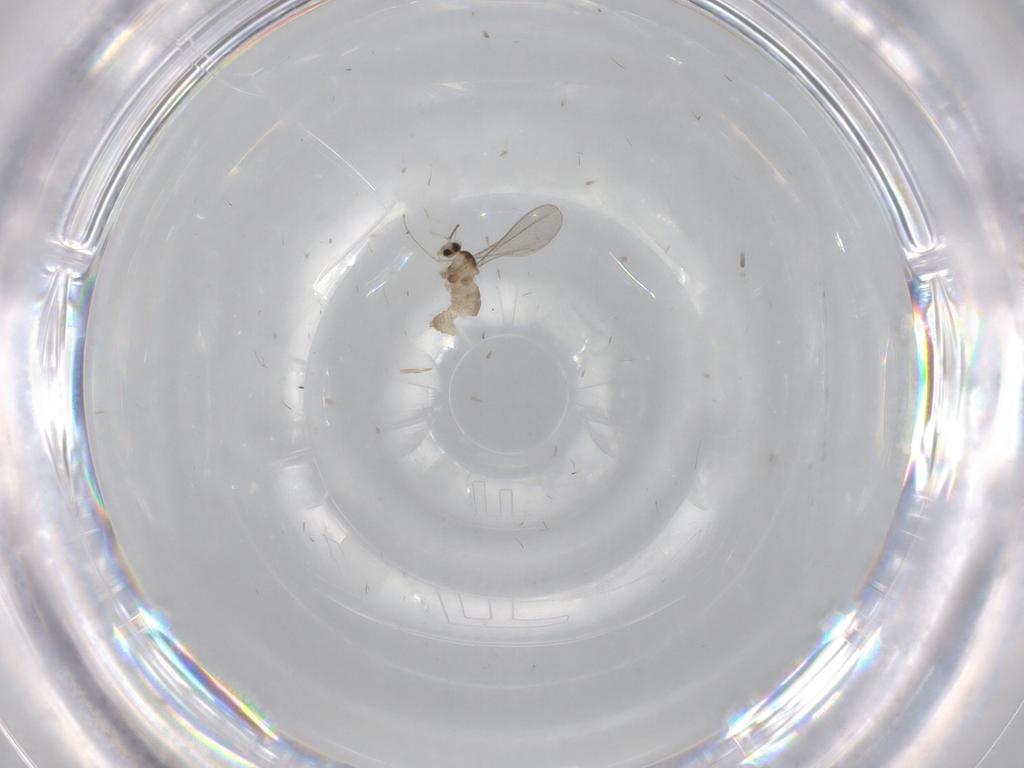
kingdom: Animalia
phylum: Arthropoda
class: Insecta
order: Diptera
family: Cecidomyiidae
